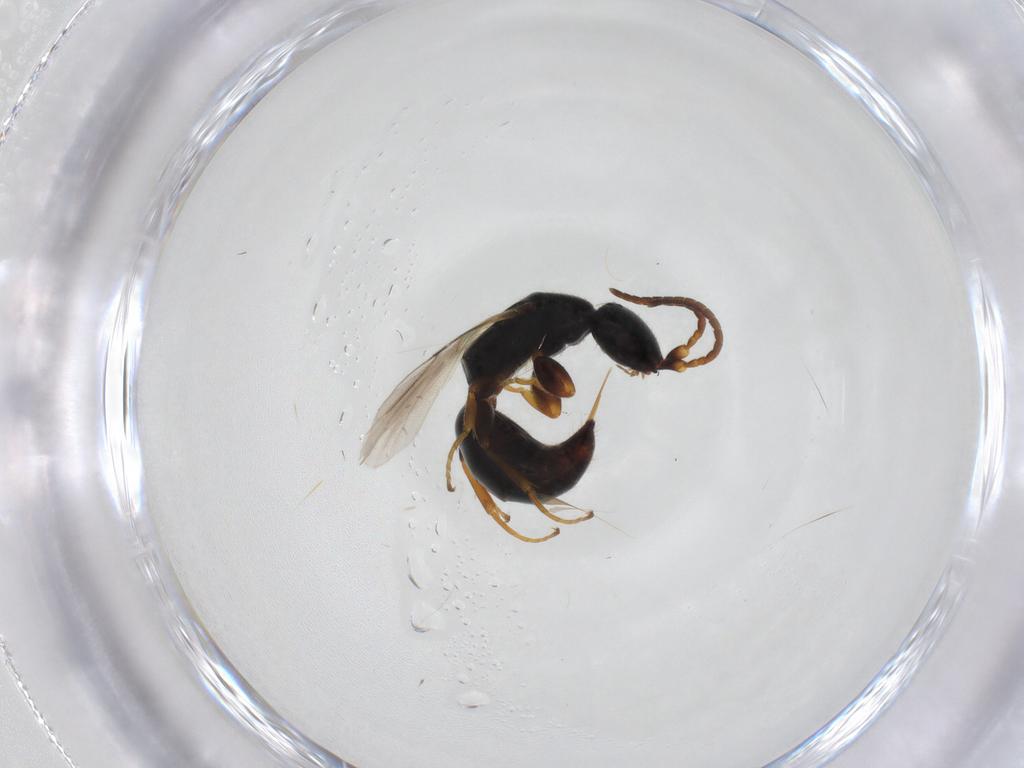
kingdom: Animalia
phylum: Arthropoda
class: Insecta
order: Hymenoptera
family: Bethylidae
